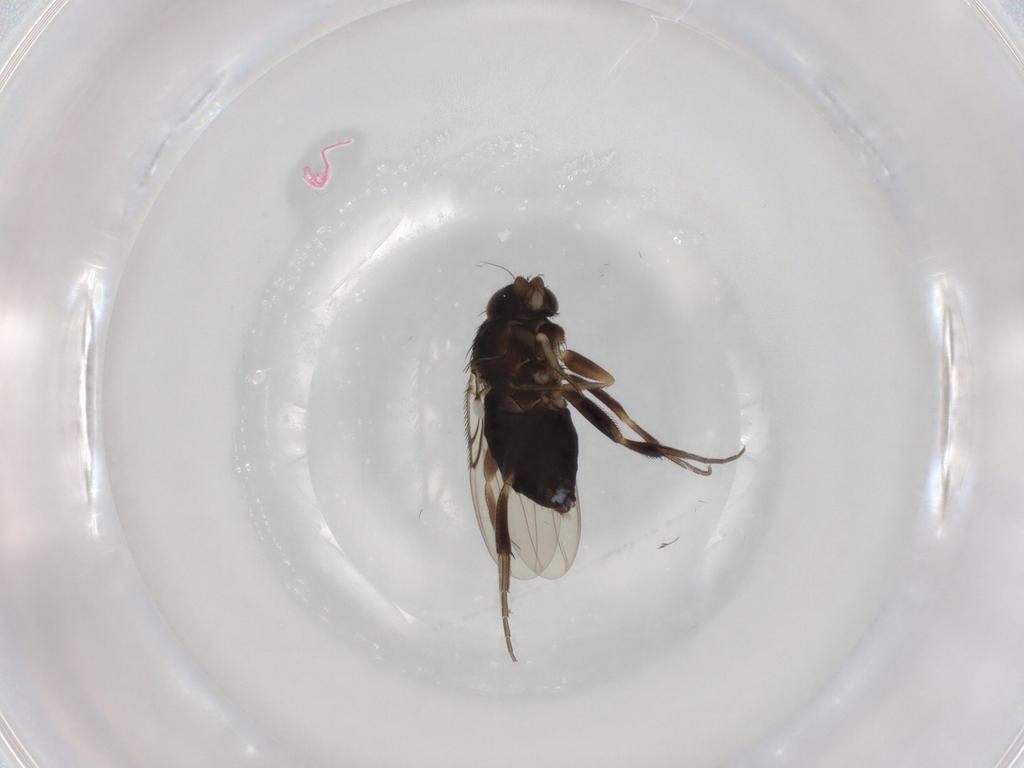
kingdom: Animalia
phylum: Arthropoda
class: Insecta
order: Diptera
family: Phoridae
